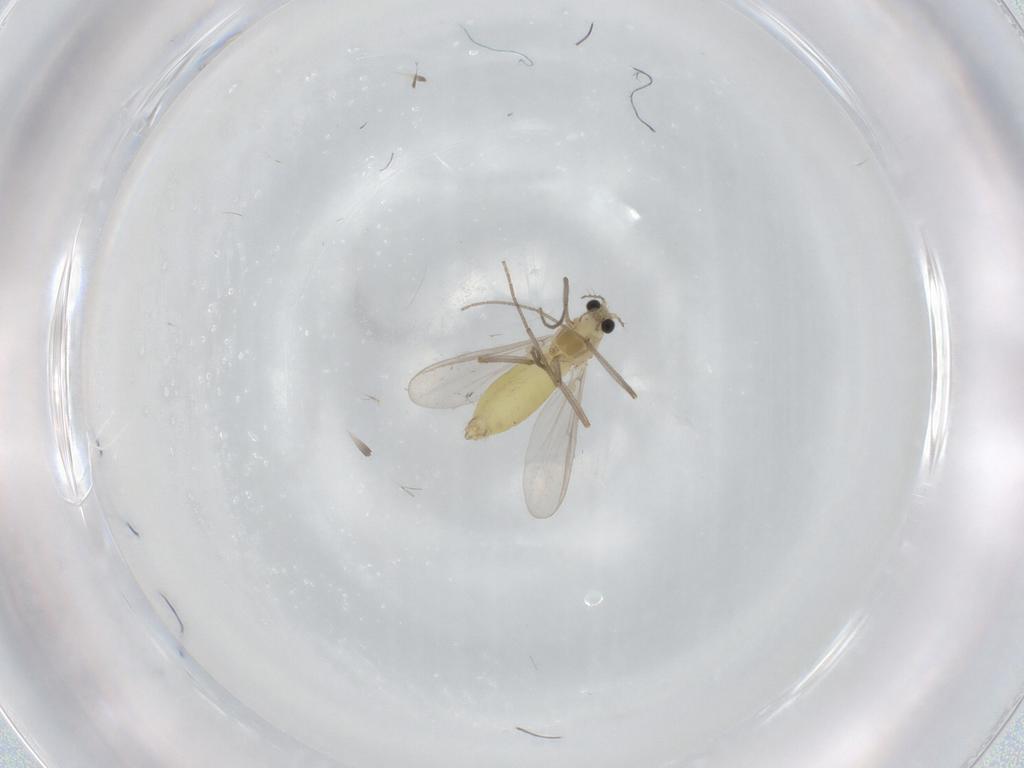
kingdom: Animalia
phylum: Arthropoda
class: Insecta
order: Diptera
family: Chironomidae
